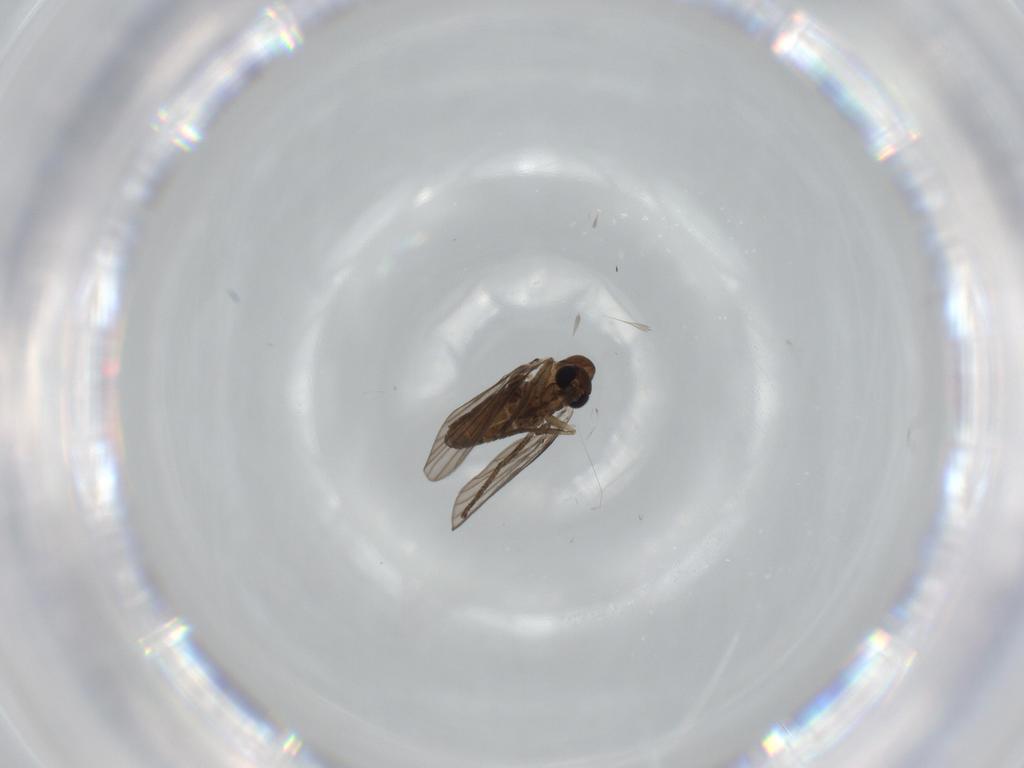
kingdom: Animalia
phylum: Arthropoda
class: Insecta
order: Diptera
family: Psychodidae
